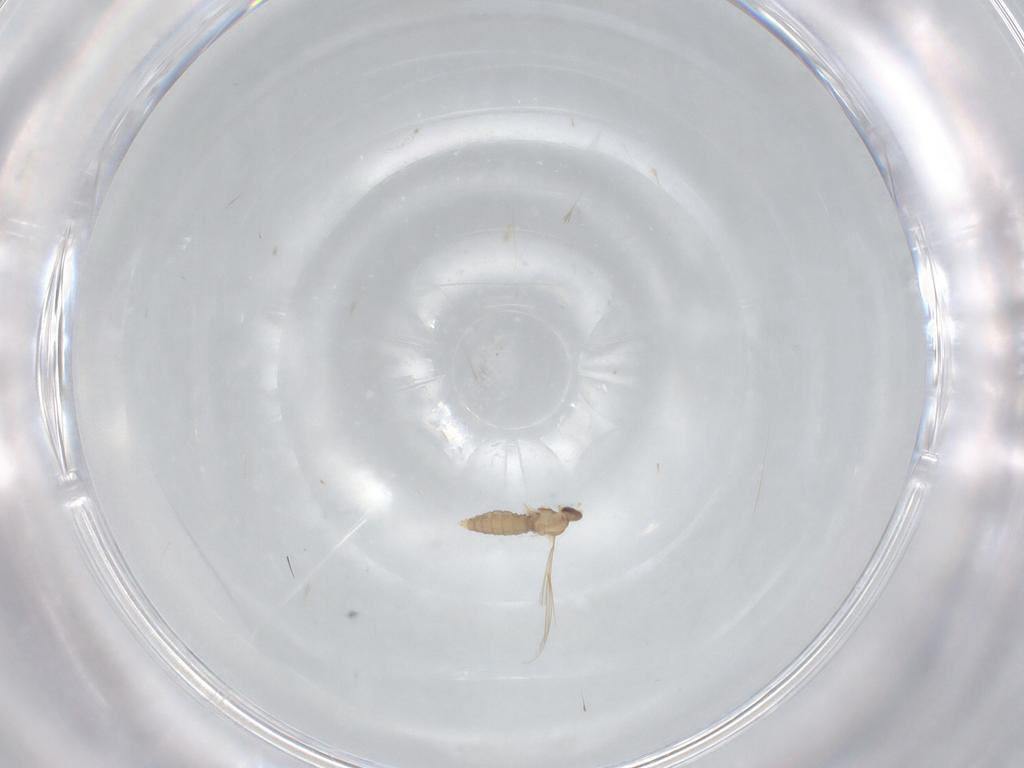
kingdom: Animalia
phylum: Arthropoda
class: Insecta
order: Diptera
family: Cecidomyiidae
